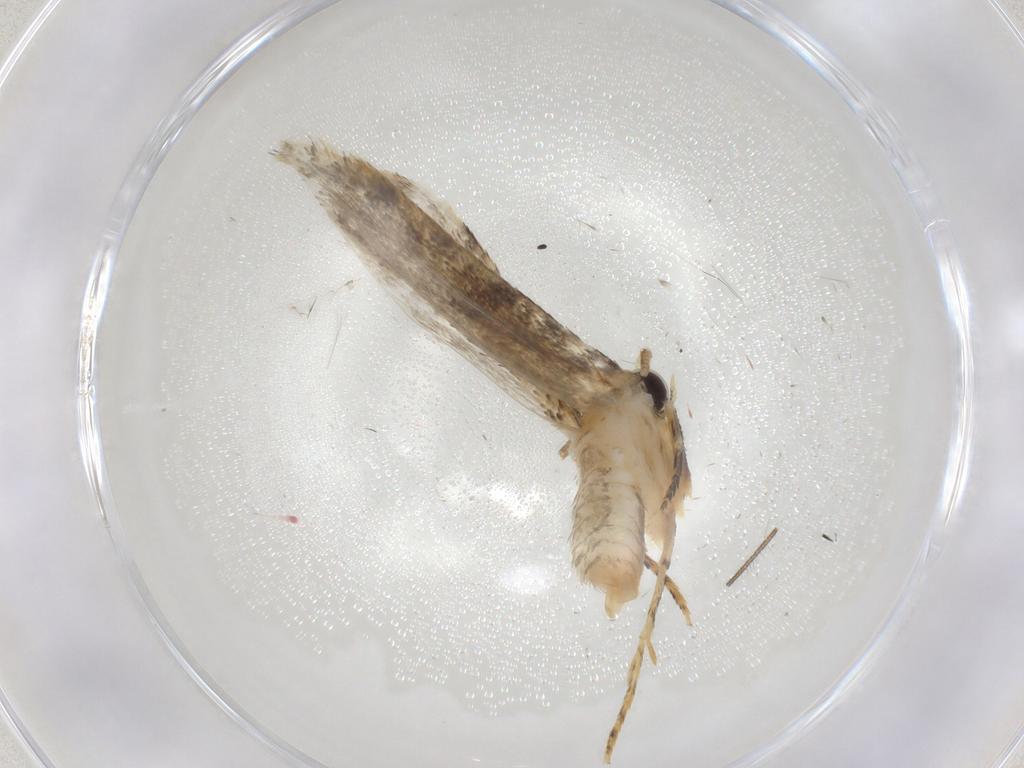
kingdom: Animalia
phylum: Arthropoda
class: Insecta
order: Lepidoptera
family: Tineidae
